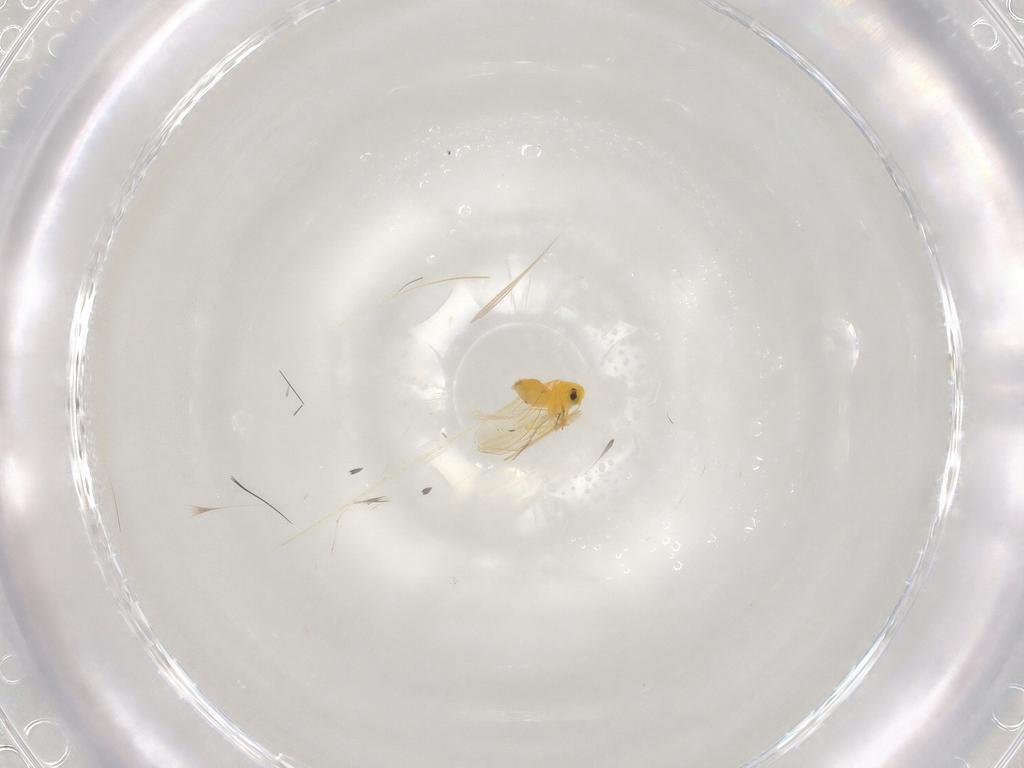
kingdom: Animalia
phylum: Arthropoda
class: Insecta
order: Hemiptera
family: Aleyrodidae
